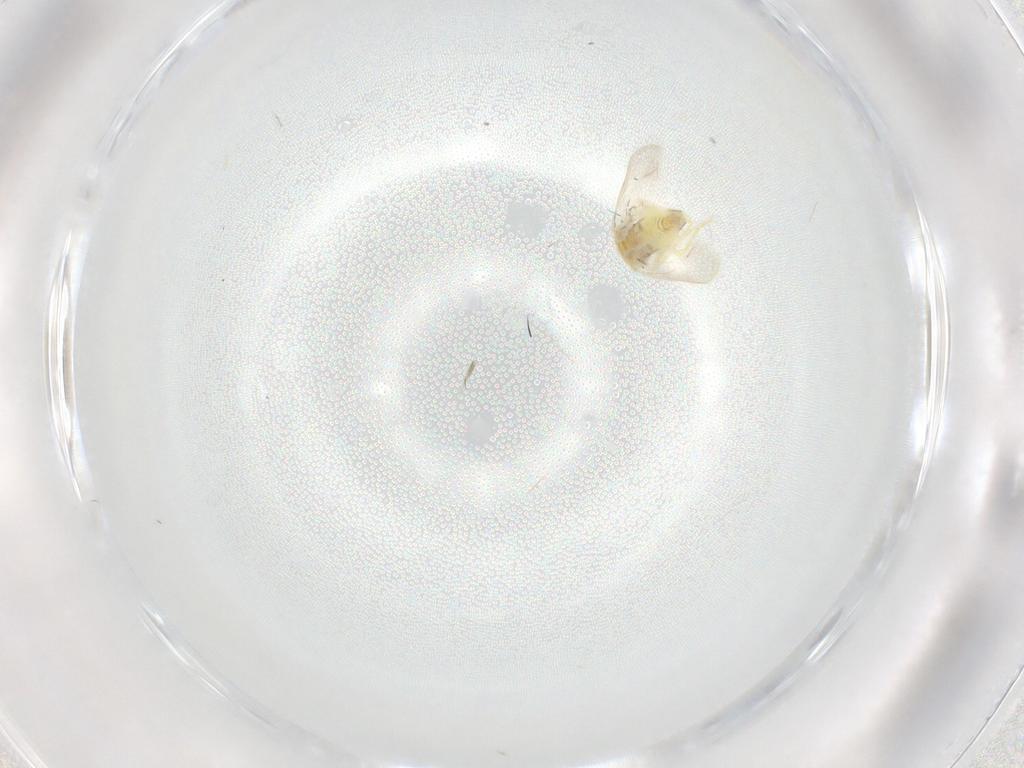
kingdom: Animalia
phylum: Arthropoda
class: Insecta
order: Hemiptera
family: Aleyrodidae
